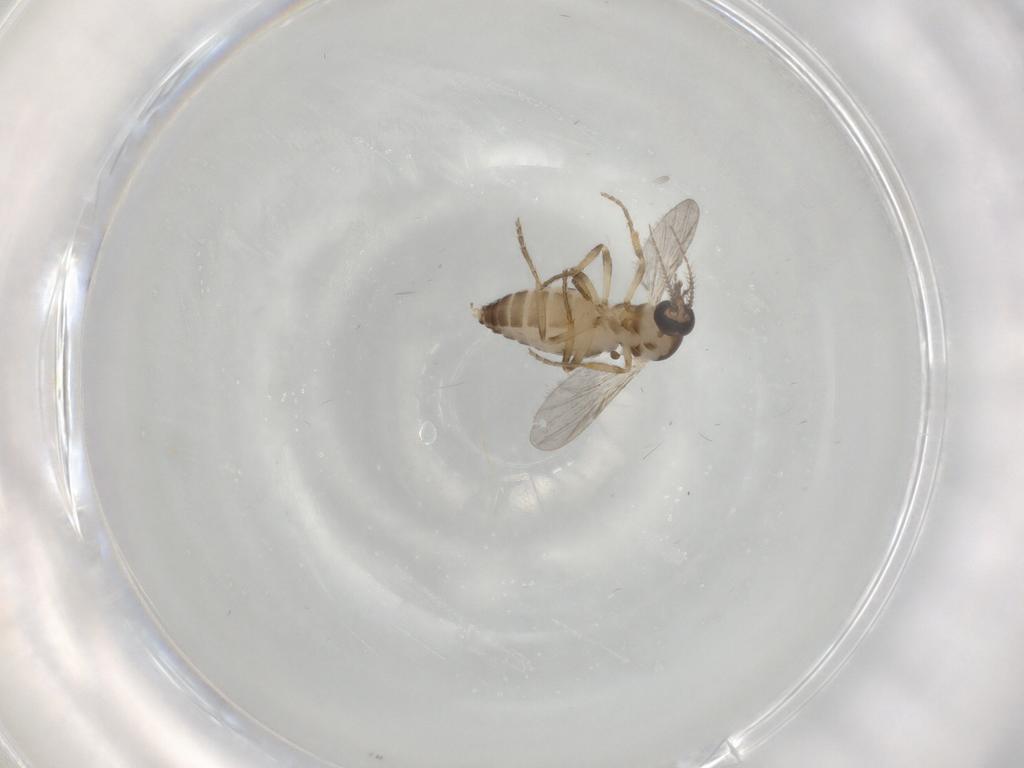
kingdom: Animalia
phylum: Arthropoda
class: Insecta
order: Diptera
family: Ceratopogonidae
